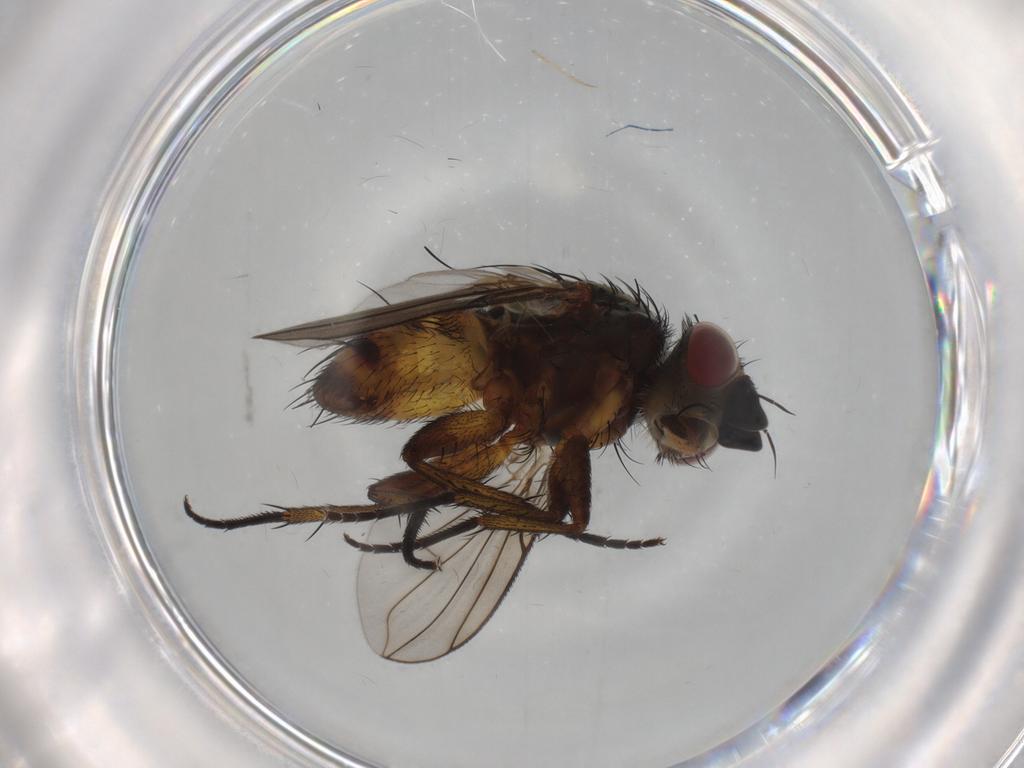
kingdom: Animalia
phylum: Arthropoda
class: Insecta
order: Diptera
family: Tachinidae
